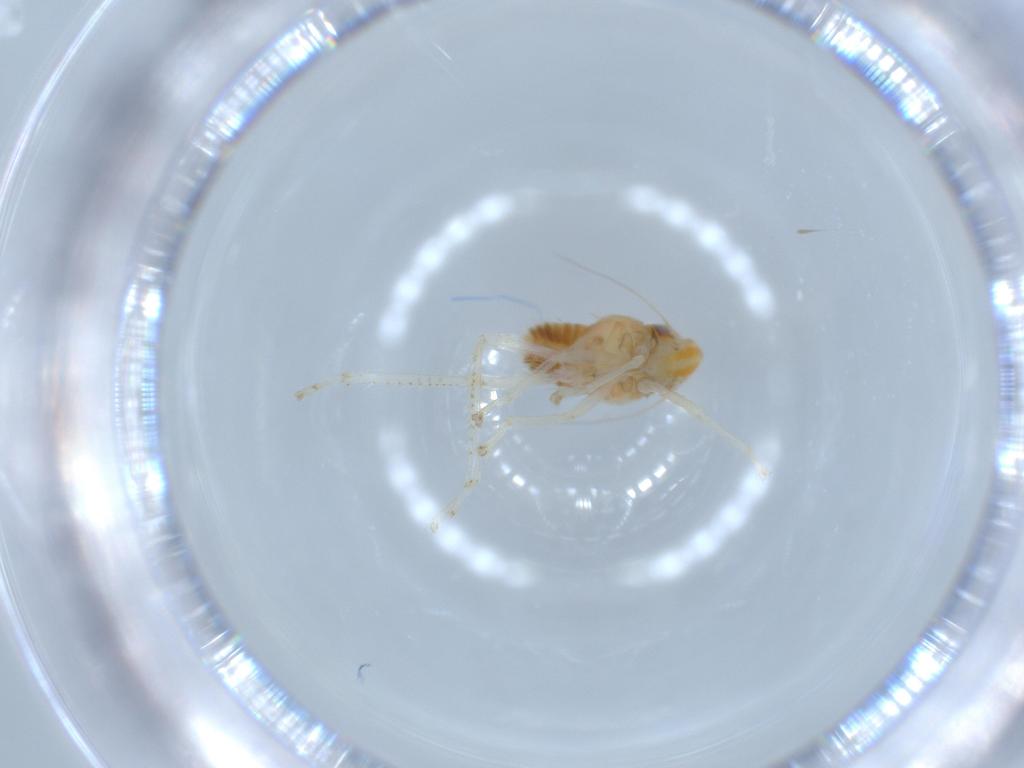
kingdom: Animalia
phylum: Arthropoda
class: Insecta
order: Hemiptera
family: Cicadellidae
